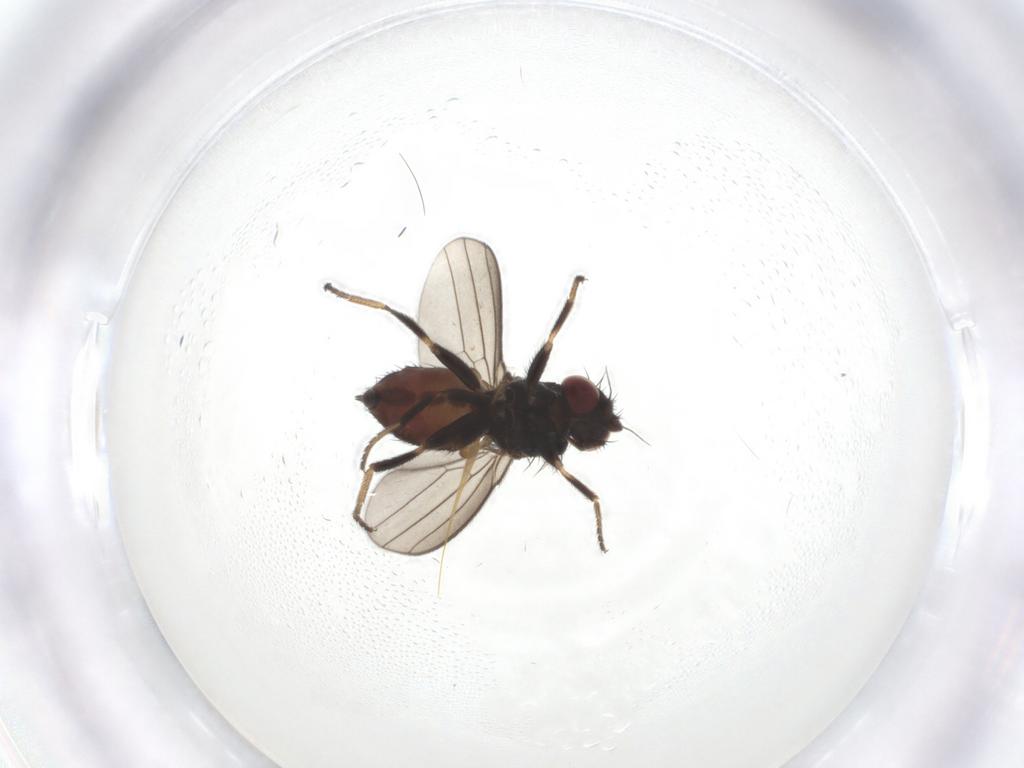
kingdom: Animalia
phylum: Arthropoda
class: Insecta
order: Diptera
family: Milichiidae
